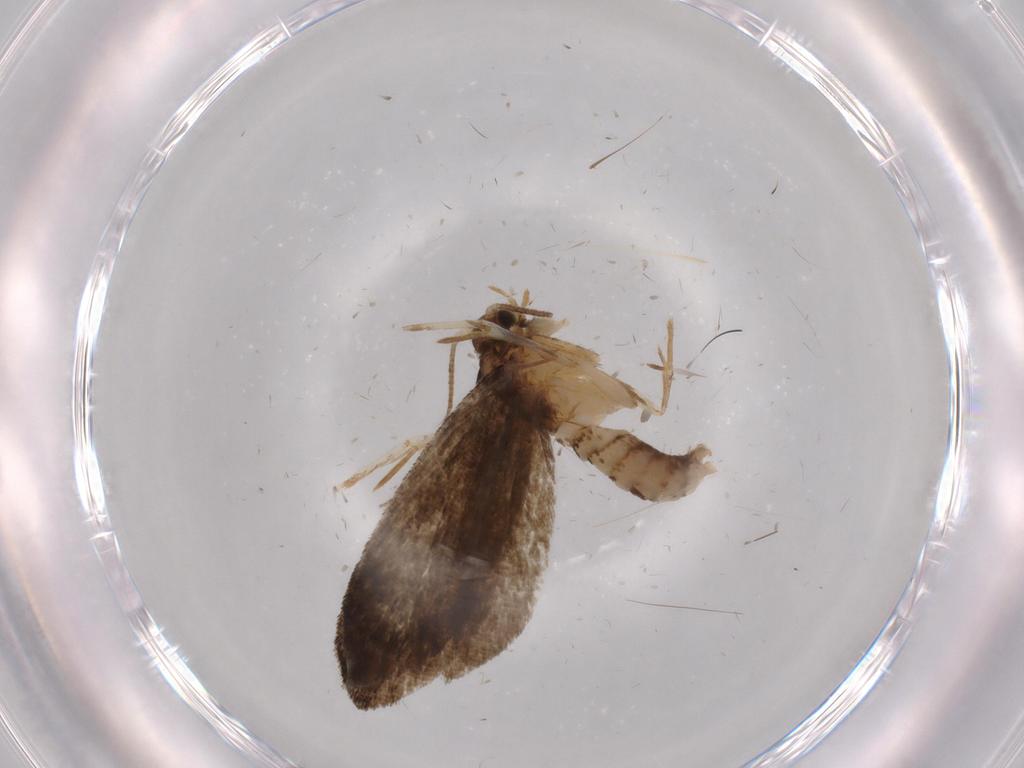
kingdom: Animalia
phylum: Arthropoda
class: Insecta
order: Lepidoptera
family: Tineidae
